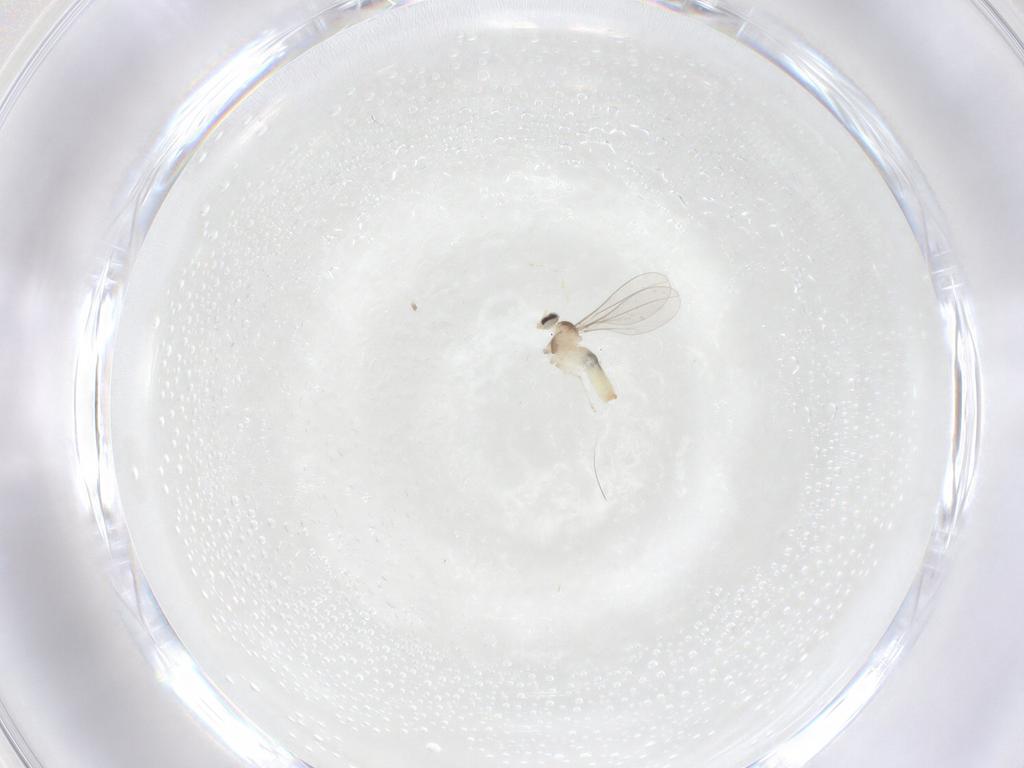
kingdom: Animalia
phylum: Arthropoda
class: Insecta
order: Diptera
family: Cecidomyiidae
